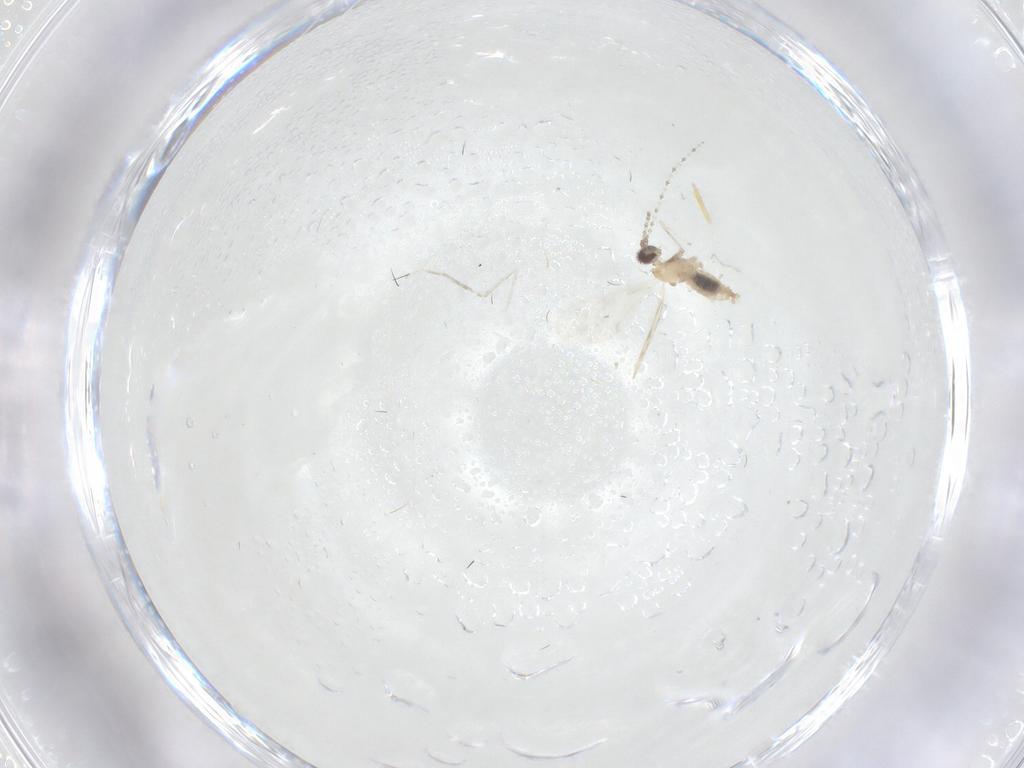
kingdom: Animalia
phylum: Arthropoda
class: Insecta
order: Diptera
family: Cecidomyiidae
